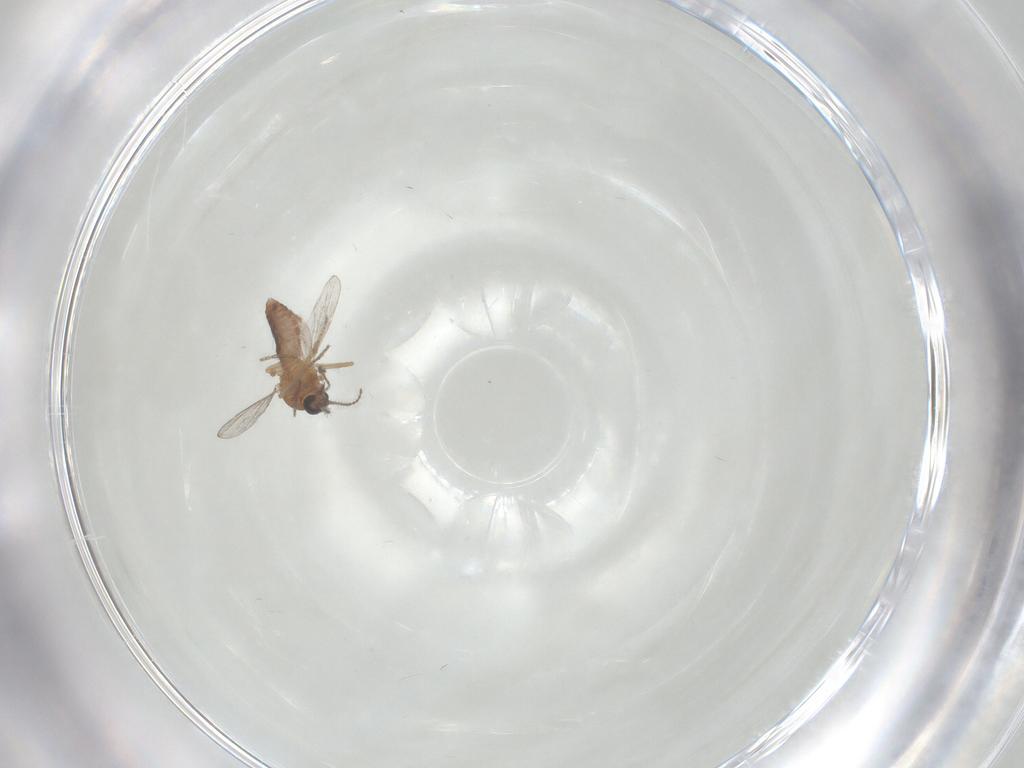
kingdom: Animalia
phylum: Arthropoda
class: Insecta
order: Diptera
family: Ceratopogonidae
